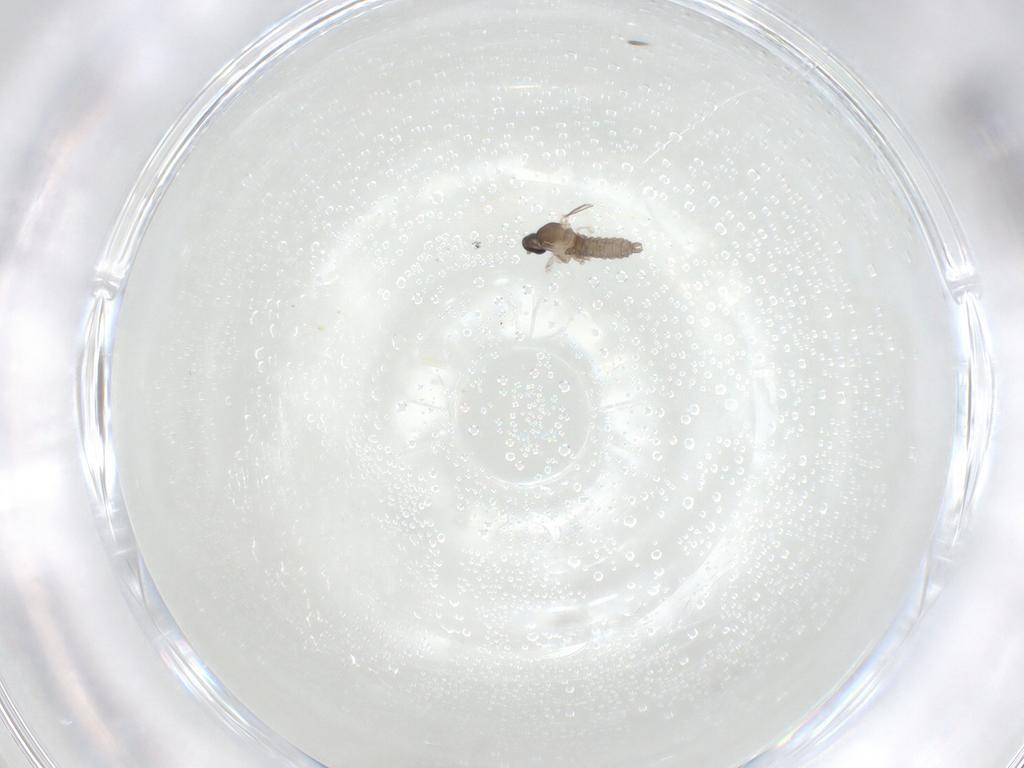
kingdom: Animalia
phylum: Arthropoda
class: Insecta
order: Diptera
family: Cecidomyiidae
